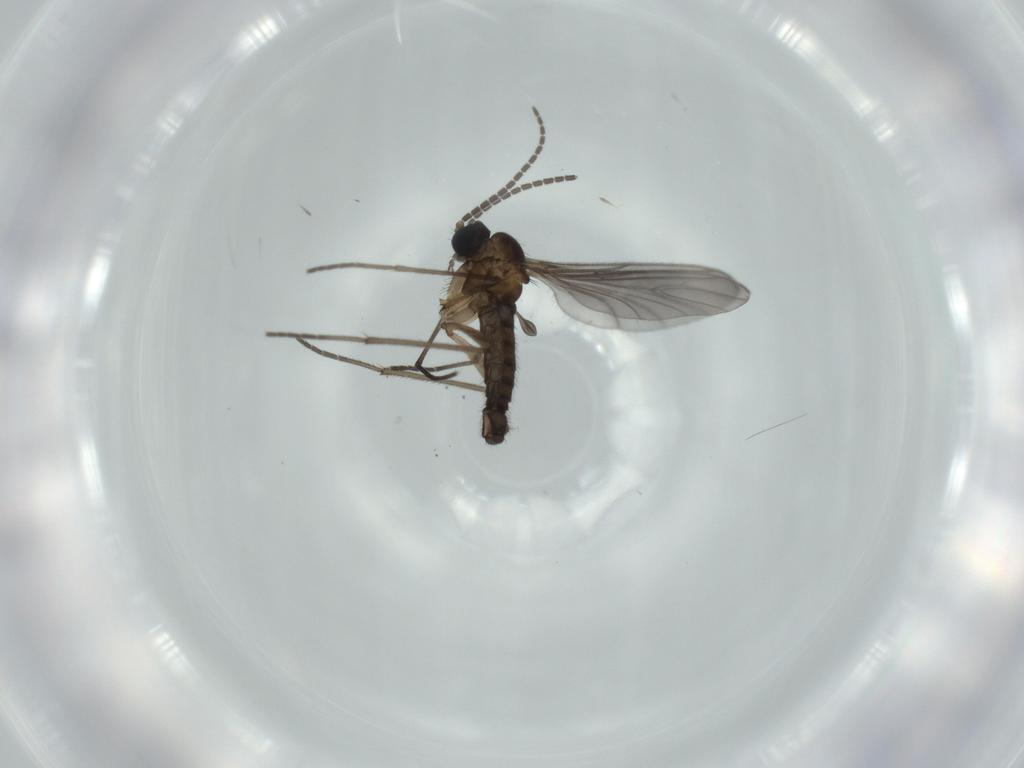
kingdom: Animalia
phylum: Arthropoda
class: Insecta
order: Diptera
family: Sciaridae
